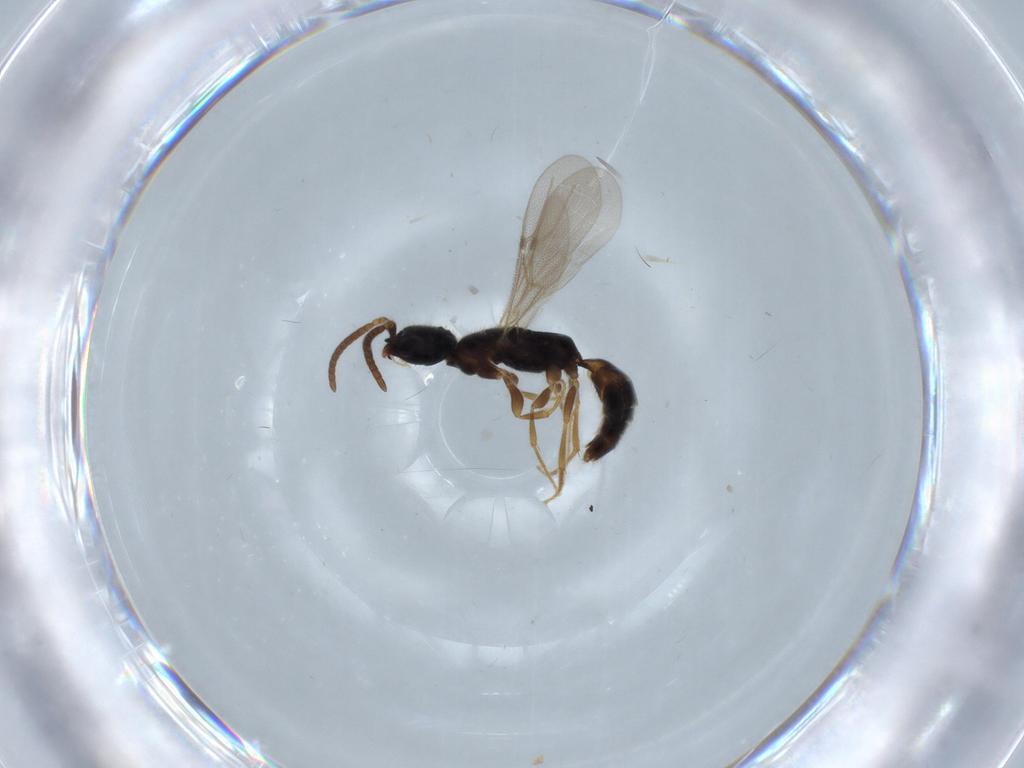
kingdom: Animalia
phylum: Arthropoda
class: Insecta
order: Hymenoptera
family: Bethylidae
